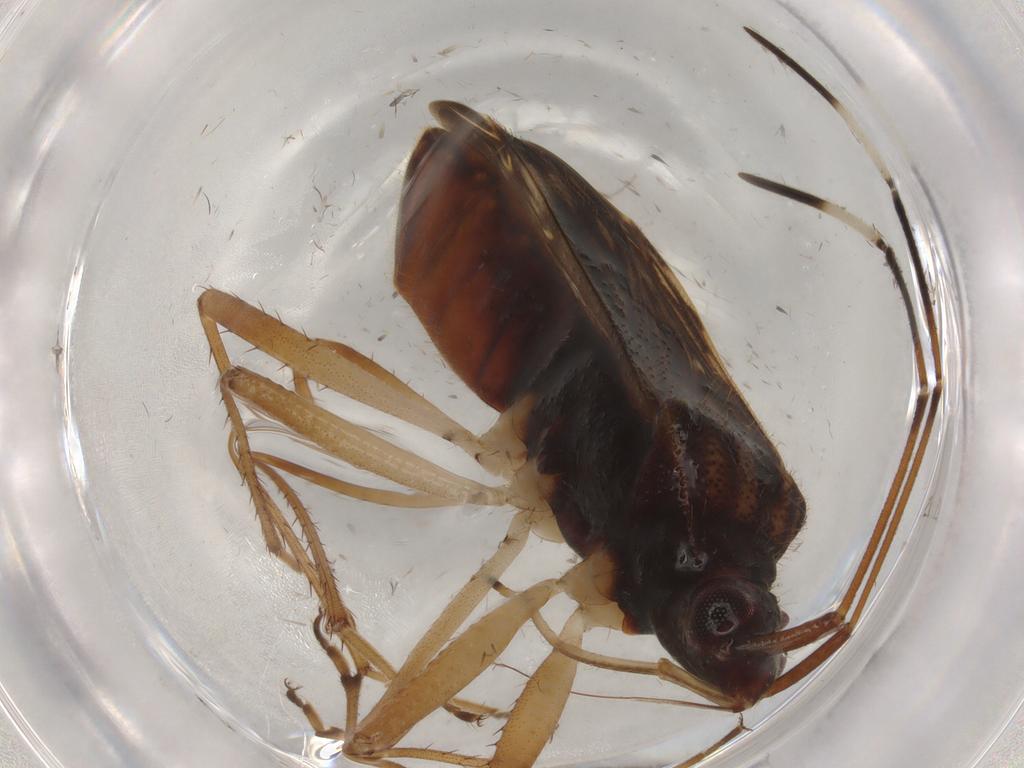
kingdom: Animalia
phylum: Arthropoda
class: Insecta
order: Hemiptera
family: Rhyparochromidae
